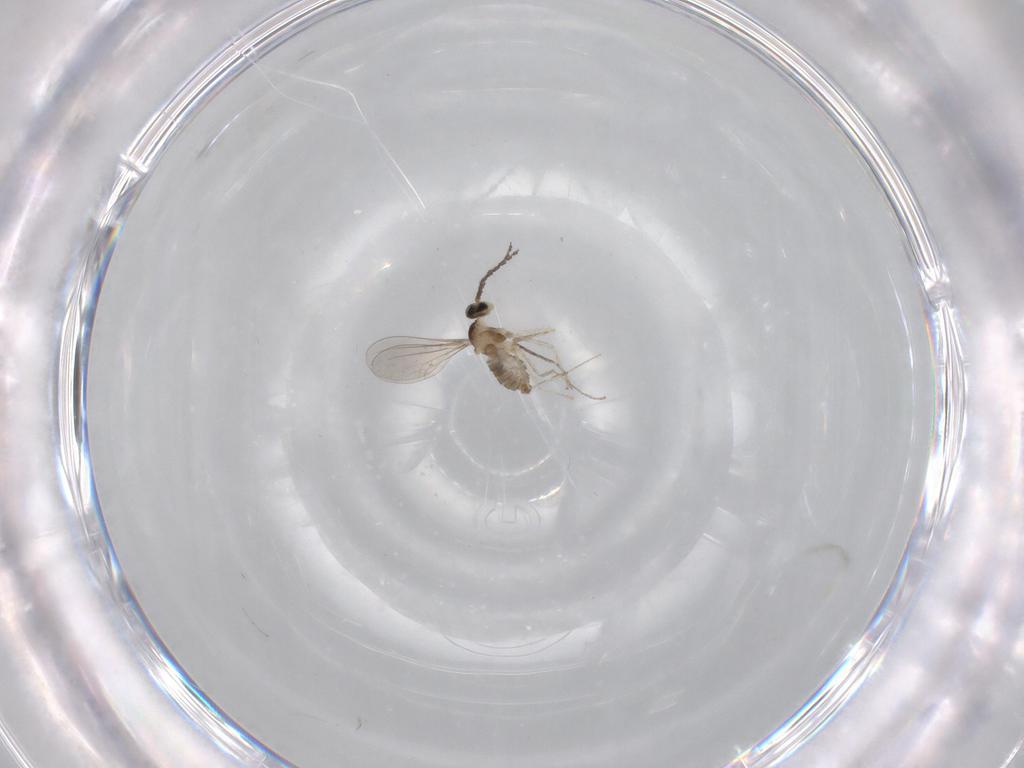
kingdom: Animalia
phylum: Arthropoda
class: Insecta
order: Diptera
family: Cecidomyiidae
